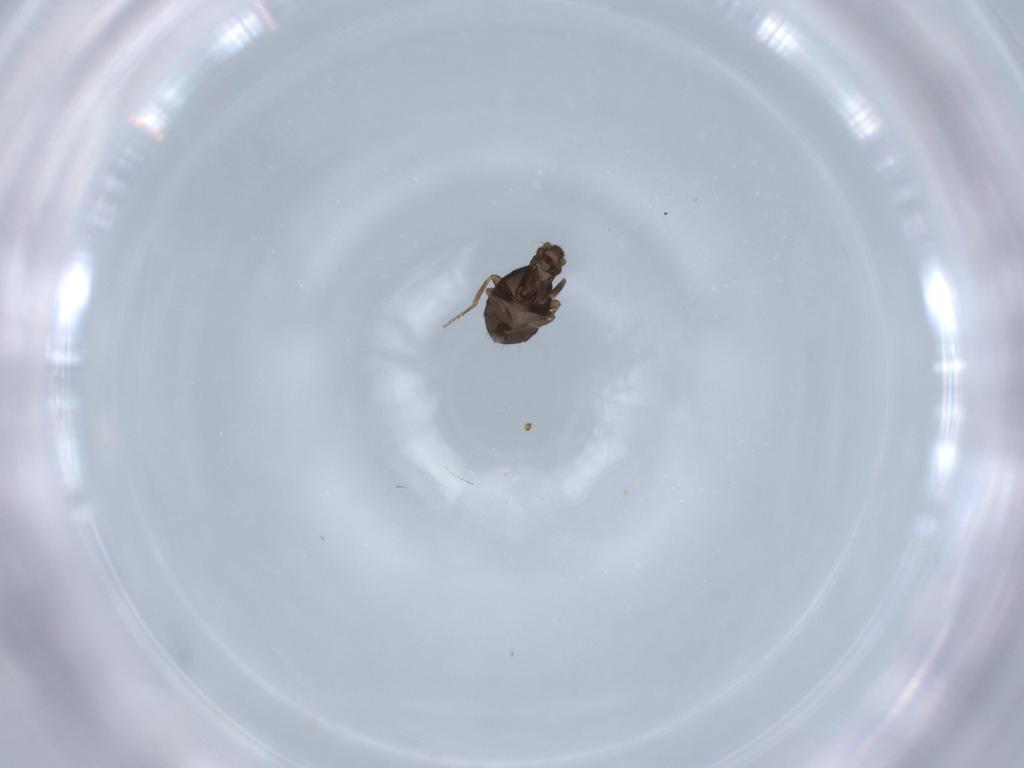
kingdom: Animalia
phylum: Arthropoda
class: Insecta
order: Diptera
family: Phoridae
